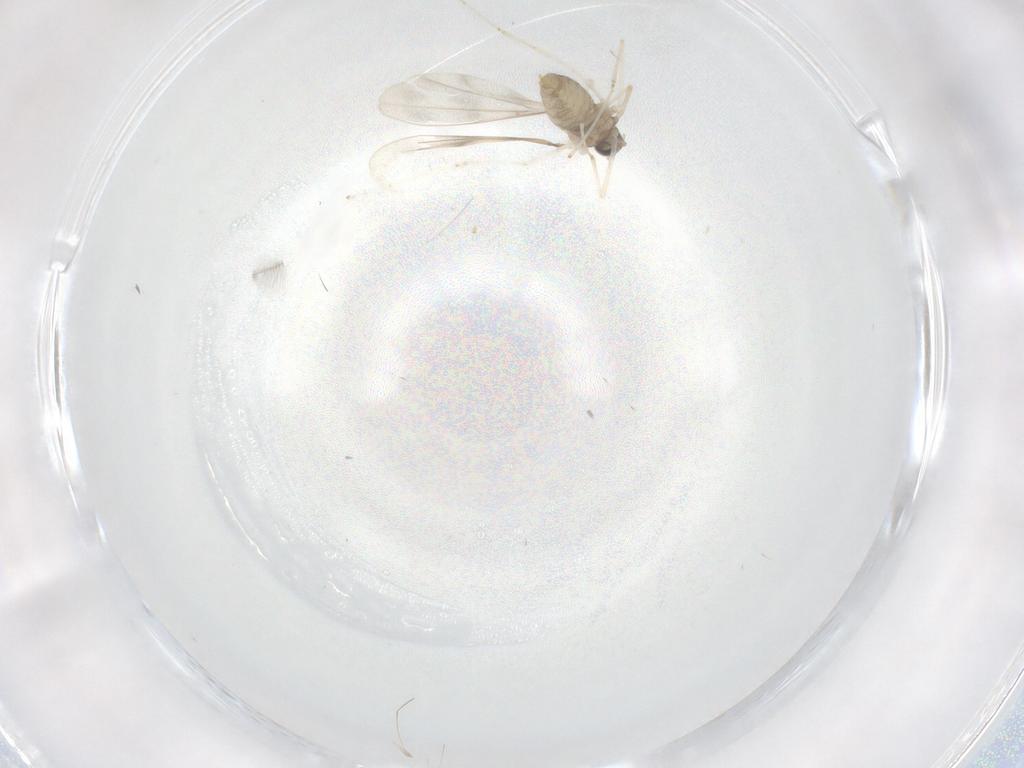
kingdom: Animalia
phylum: Arthropoda
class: Insecta
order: Diptera
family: Cecidomyiidae
